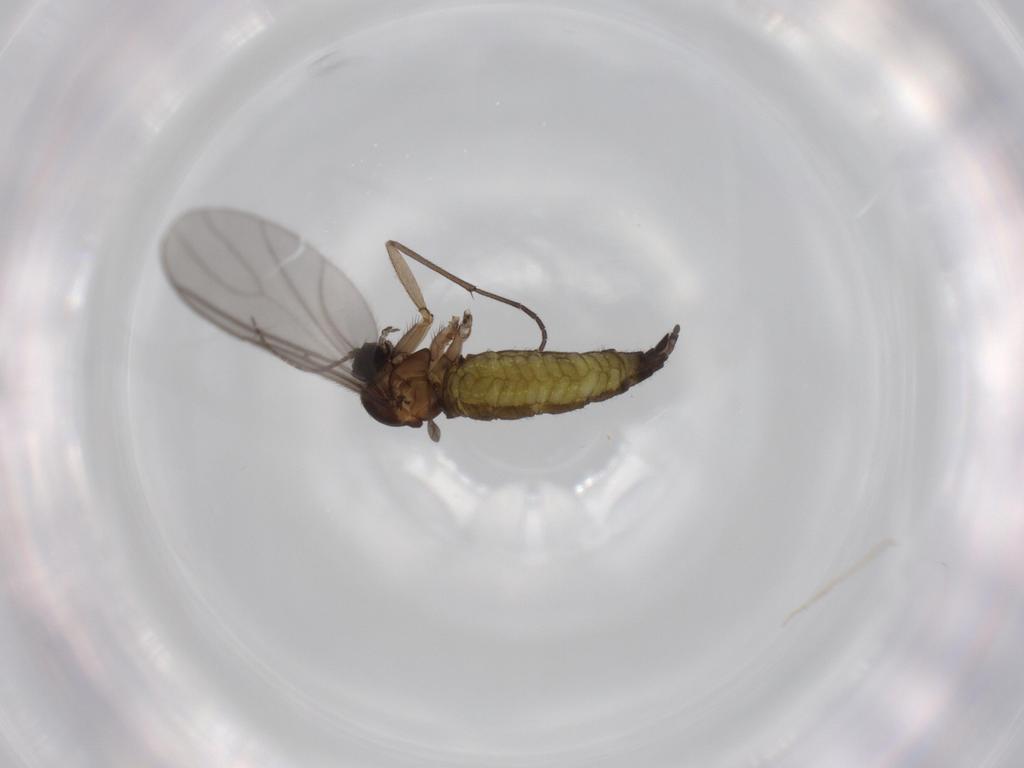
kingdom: Animalia
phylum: Arthropoda
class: Insecta
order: Diptera
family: Sciaridae
